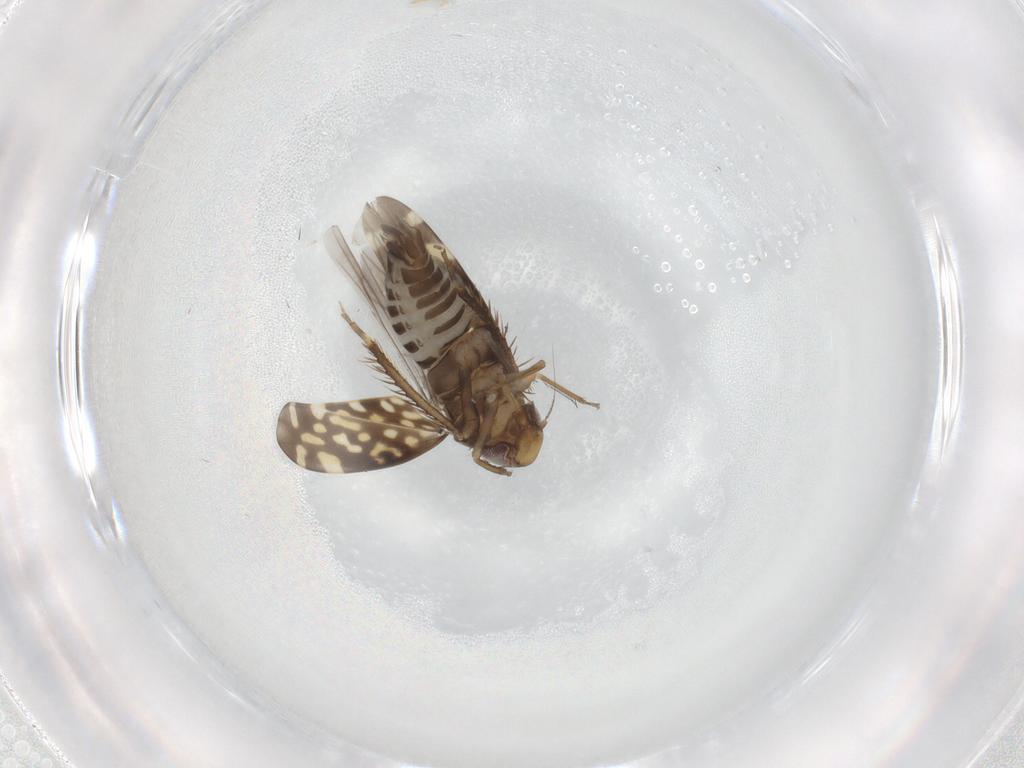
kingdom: Animalia
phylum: Arthropoda
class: Insecta
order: Hemiptera
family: Cicadellidae
